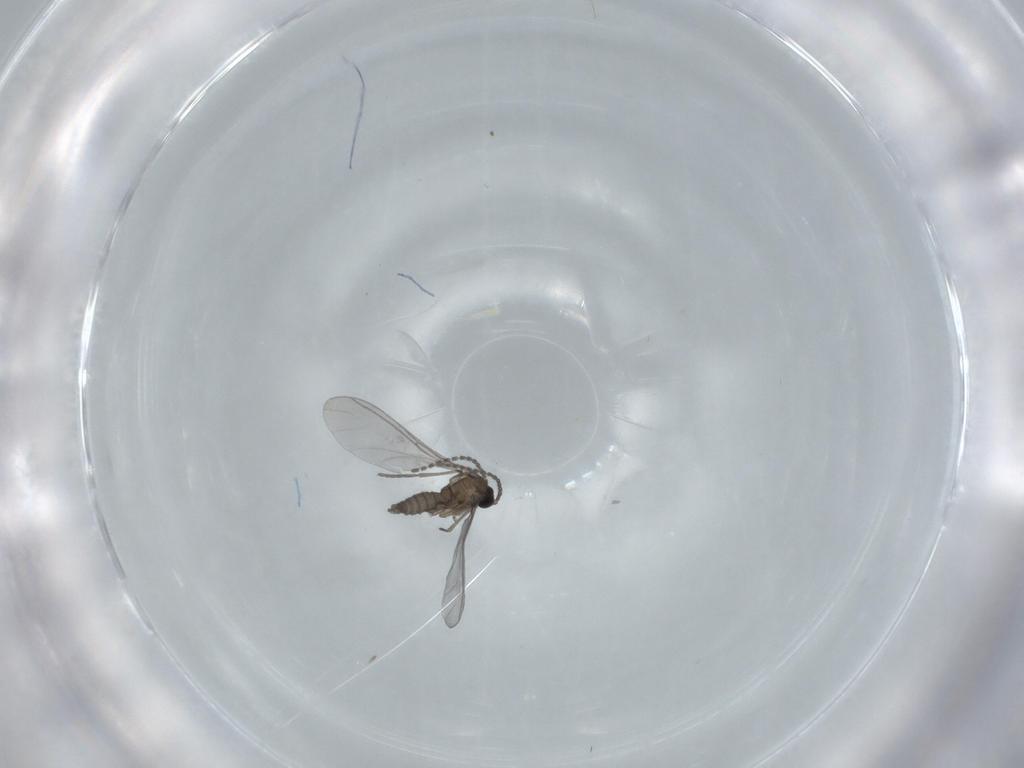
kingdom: Animalia
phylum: Arthropoda
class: Insecta
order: Diptera
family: Sciaridae
